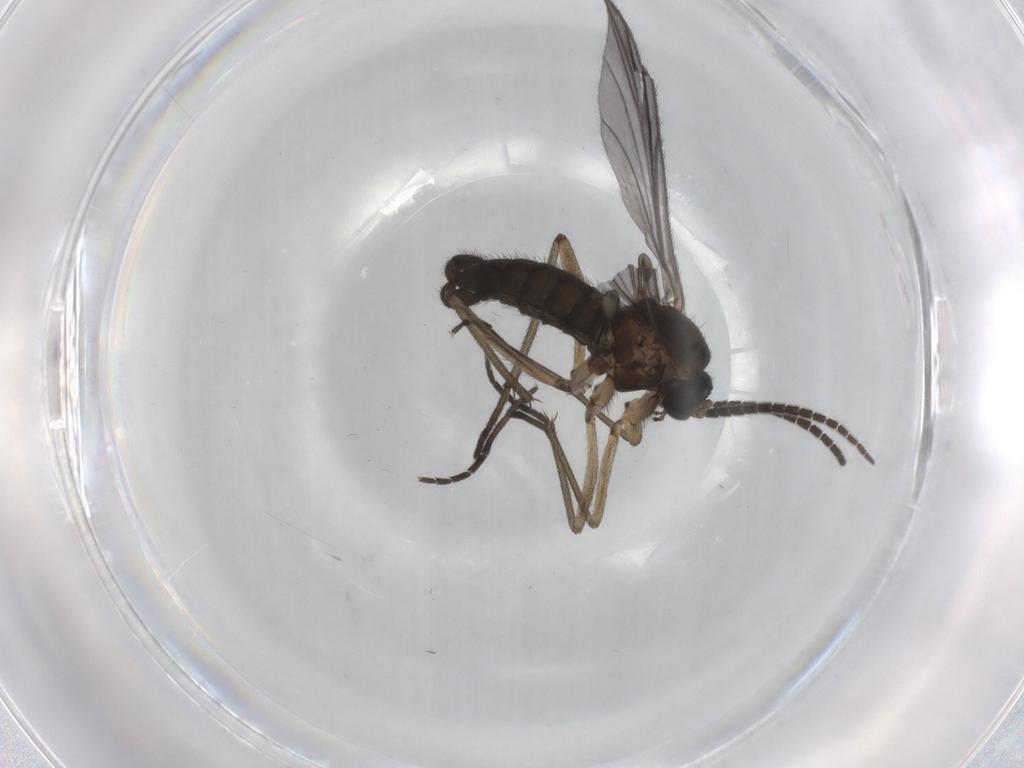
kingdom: Animalia
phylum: Arthropoda
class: Insecta
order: Diptera
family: Sciaridae
